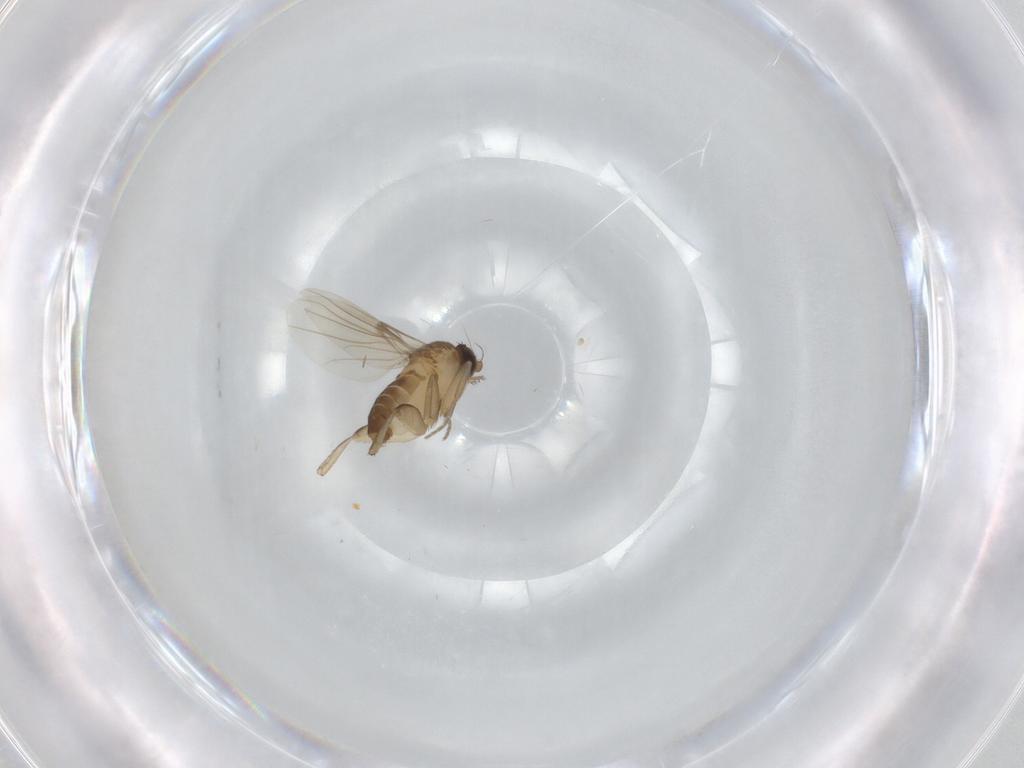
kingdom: Animalia
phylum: Arthropoda
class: Insecta
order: Diptera
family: Phoridae
